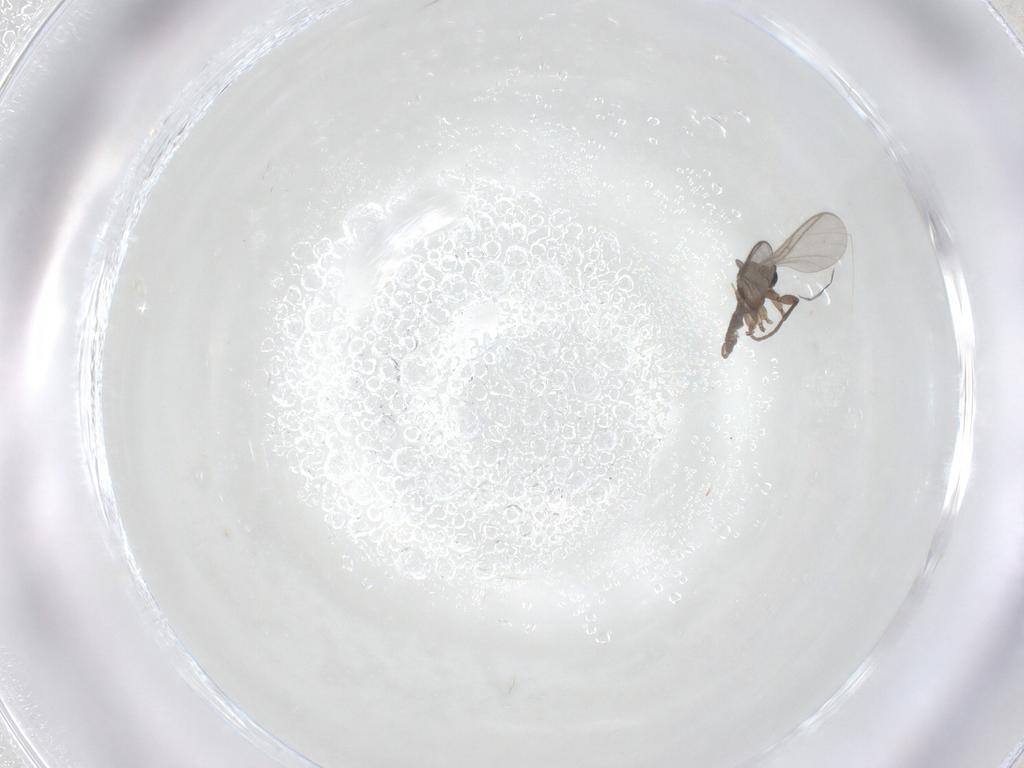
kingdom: Animalia
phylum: Arthropoda
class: Insecta
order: Diptera
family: Sciaridae
